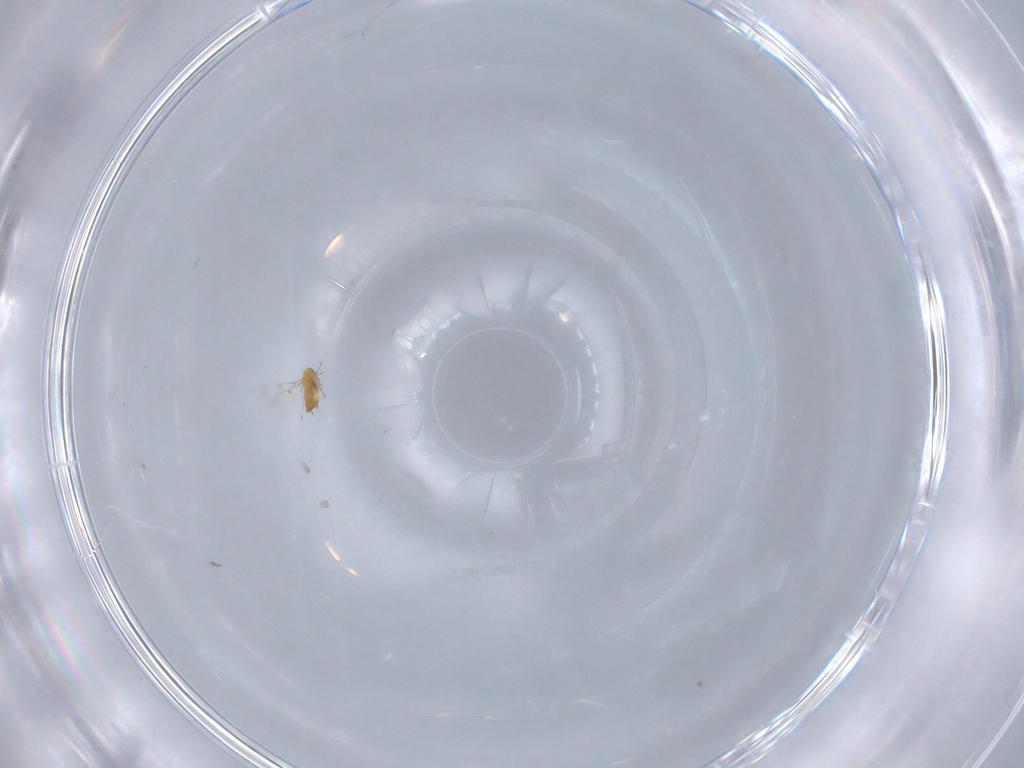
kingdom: Animalia
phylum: Arthropoda
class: Insecta
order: Hymenoptera
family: Trichogrammatidae
